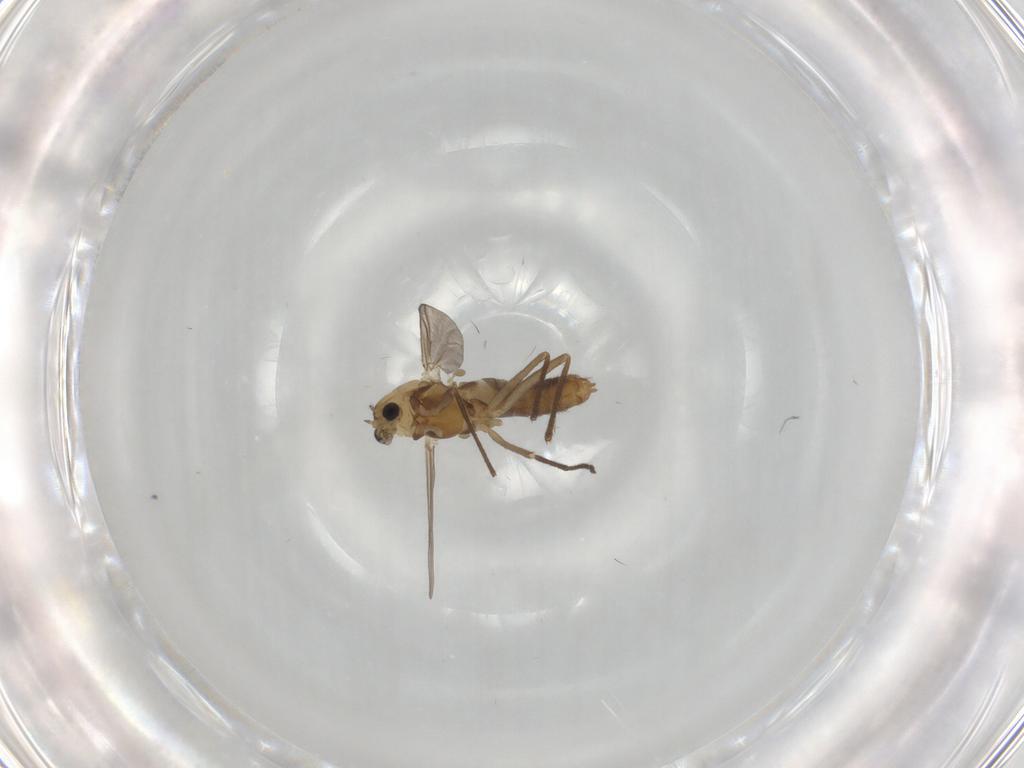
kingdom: Animalia
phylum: Arthropoda
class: Insecta
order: Diptera
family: Chironomidae
